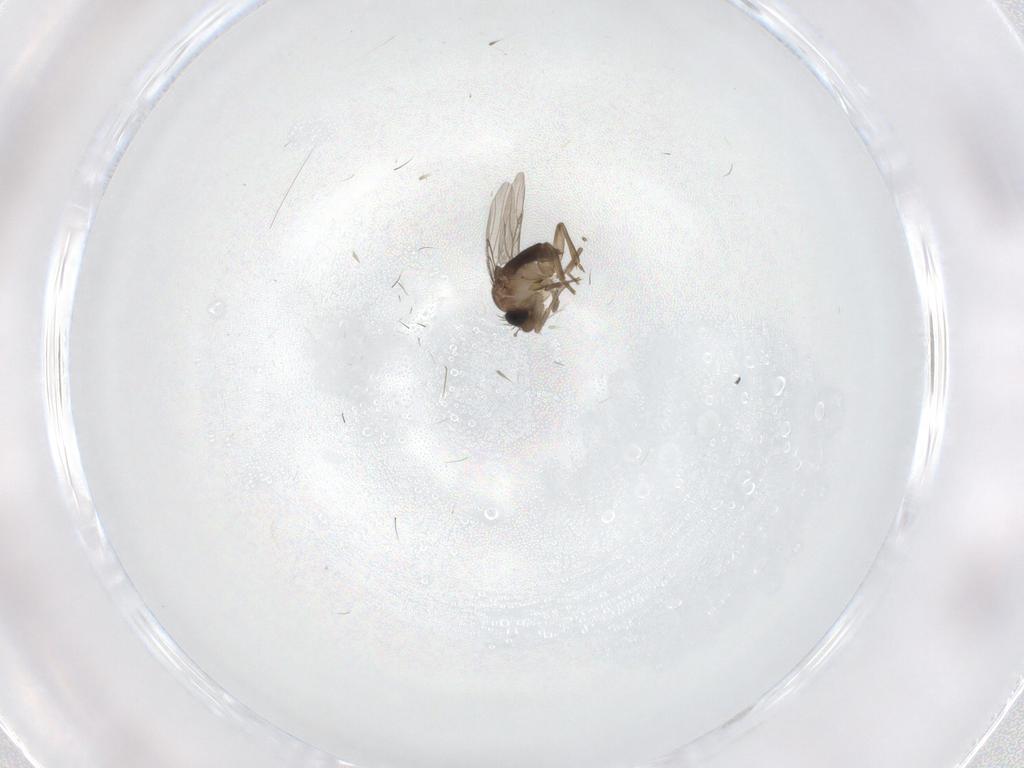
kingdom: Animalia
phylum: Arthropoda
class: Insecta
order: Diptera
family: Phoridae
